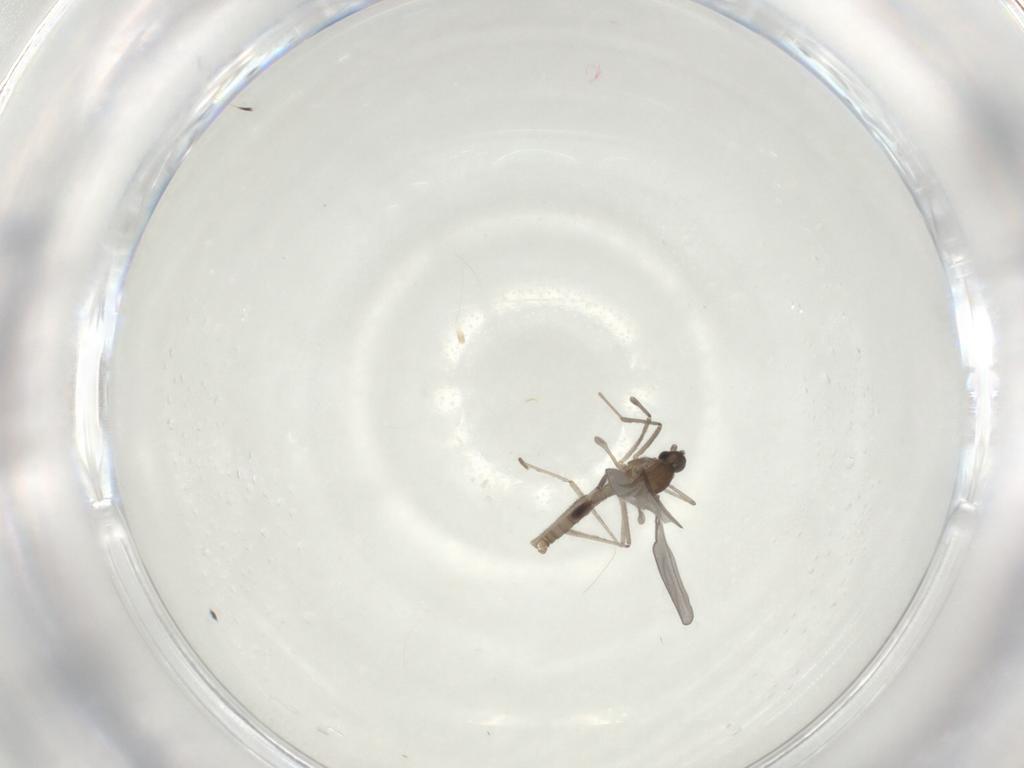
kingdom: Animalia
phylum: Arthropoda
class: Insecta
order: Diptera
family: Cecidomyiidae
